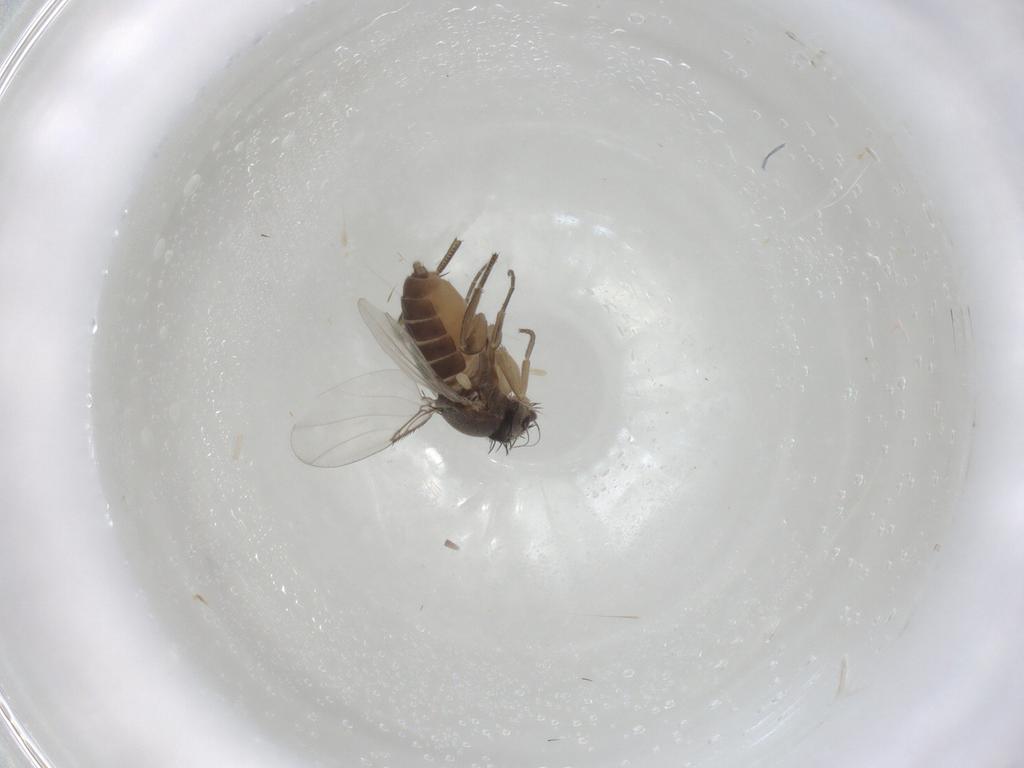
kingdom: Animalia
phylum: Arthropoda
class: Insecta
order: Diptera
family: Phoridae
